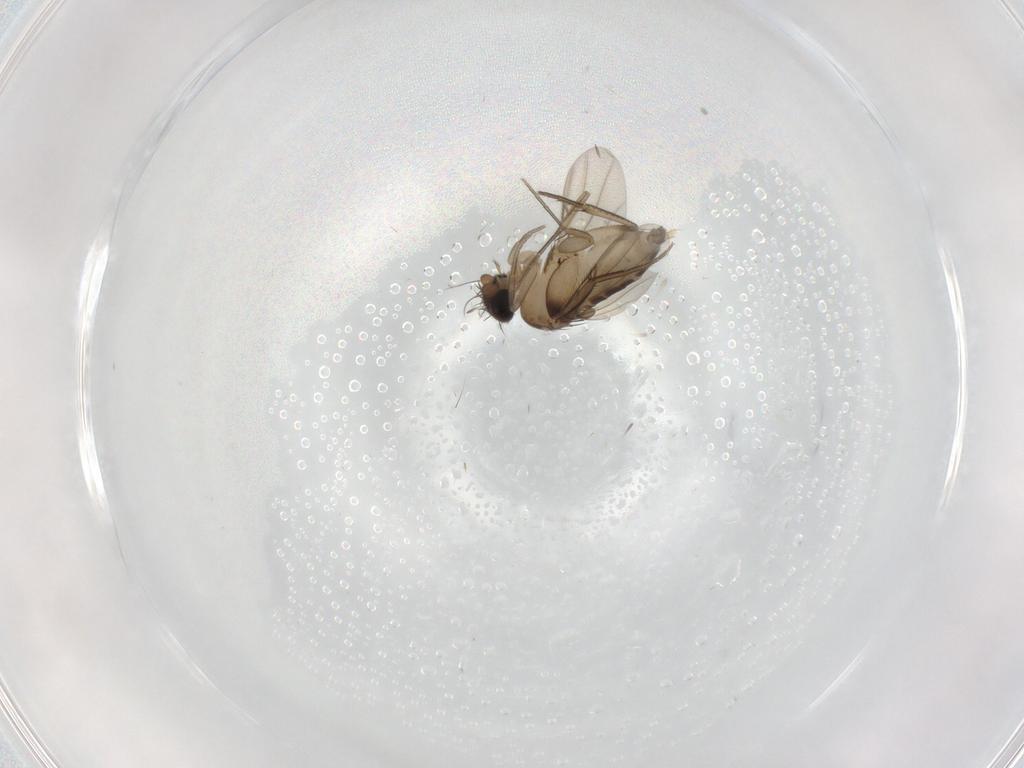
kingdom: Animalia
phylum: Arthropoda
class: Insecta
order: Diptera
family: Phoridae
